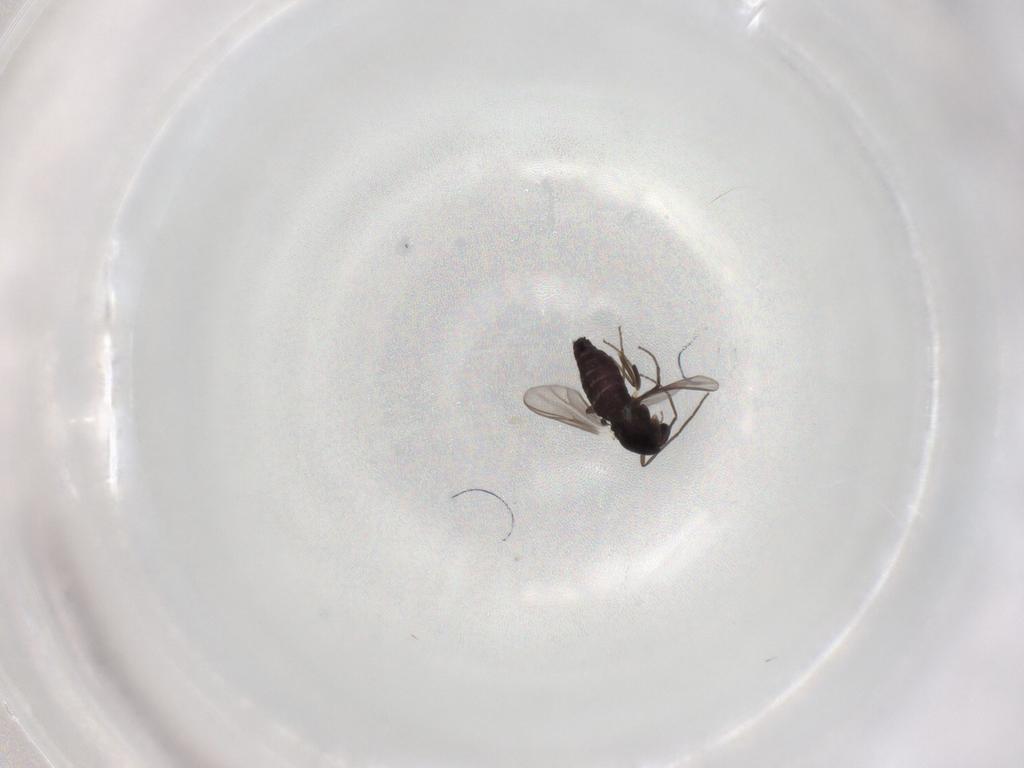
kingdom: Animalia
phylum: Arthropoda
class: Insecta
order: Diptera
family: Chironomidae
